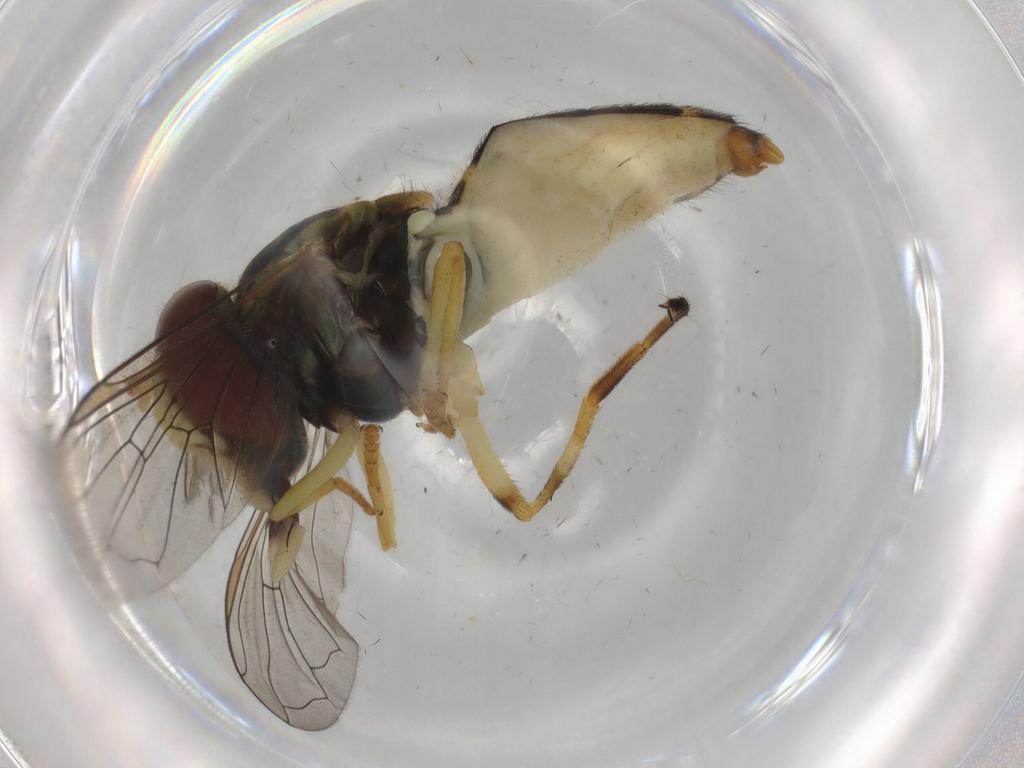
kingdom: Animalia
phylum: Arthropoda
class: Insecta
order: Diptera
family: Syrphidae
